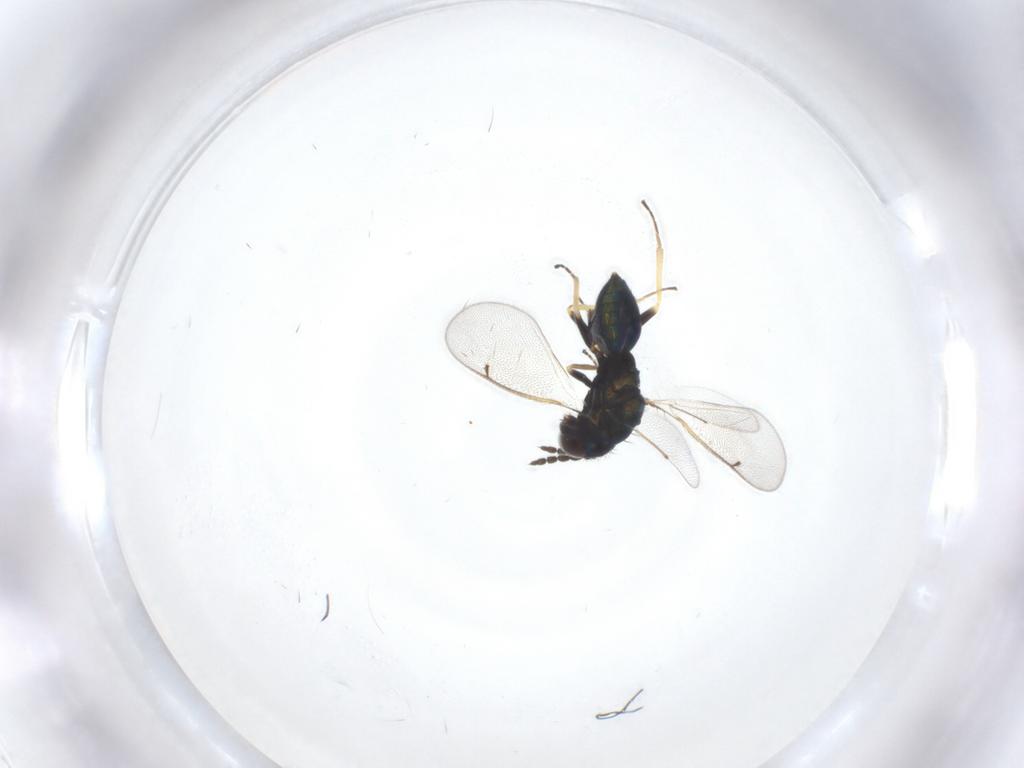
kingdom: Animalia
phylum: Arthropoda
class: Insecta
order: Hymenoptera
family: Eulophidae
